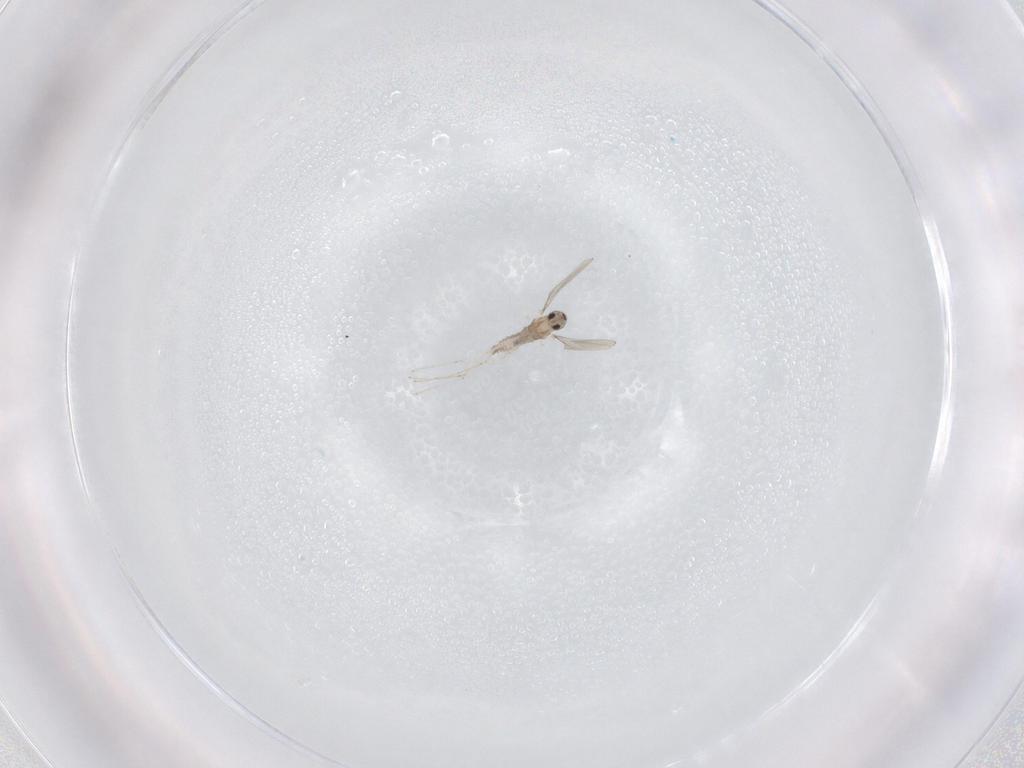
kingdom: Animalia
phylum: Arthropoda
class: Insecta
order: Diptera
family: Cecidomyiidae
